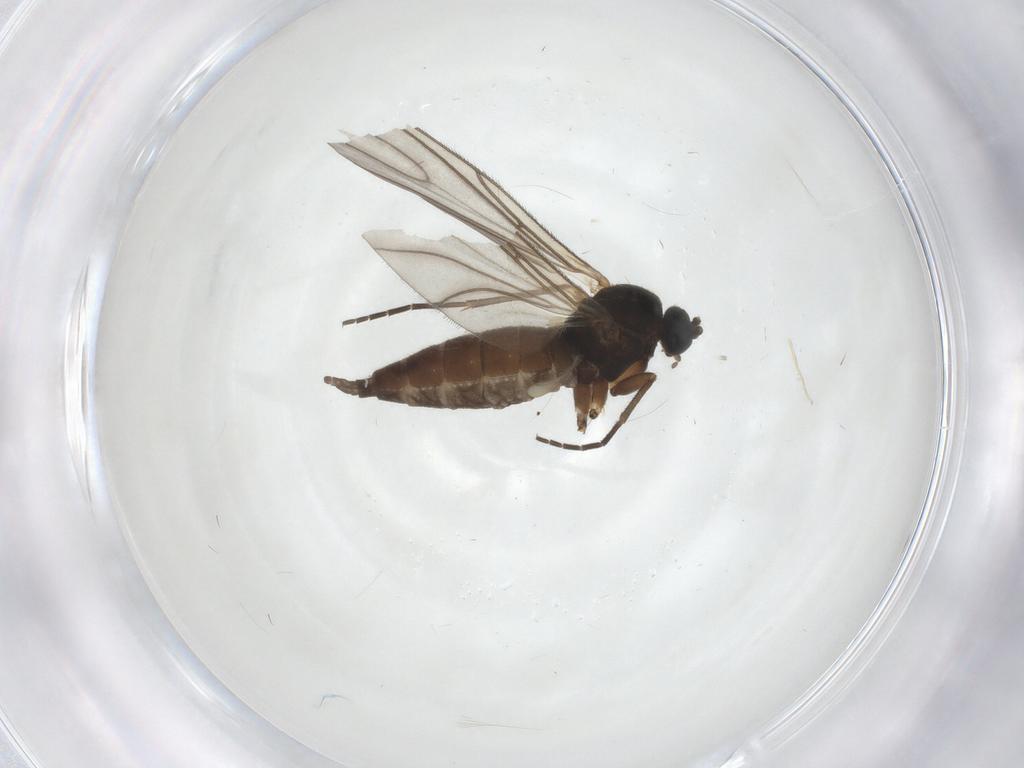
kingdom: Animalia
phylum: Arthropoda
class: Insecta
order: Diptera
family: Sciaridae
